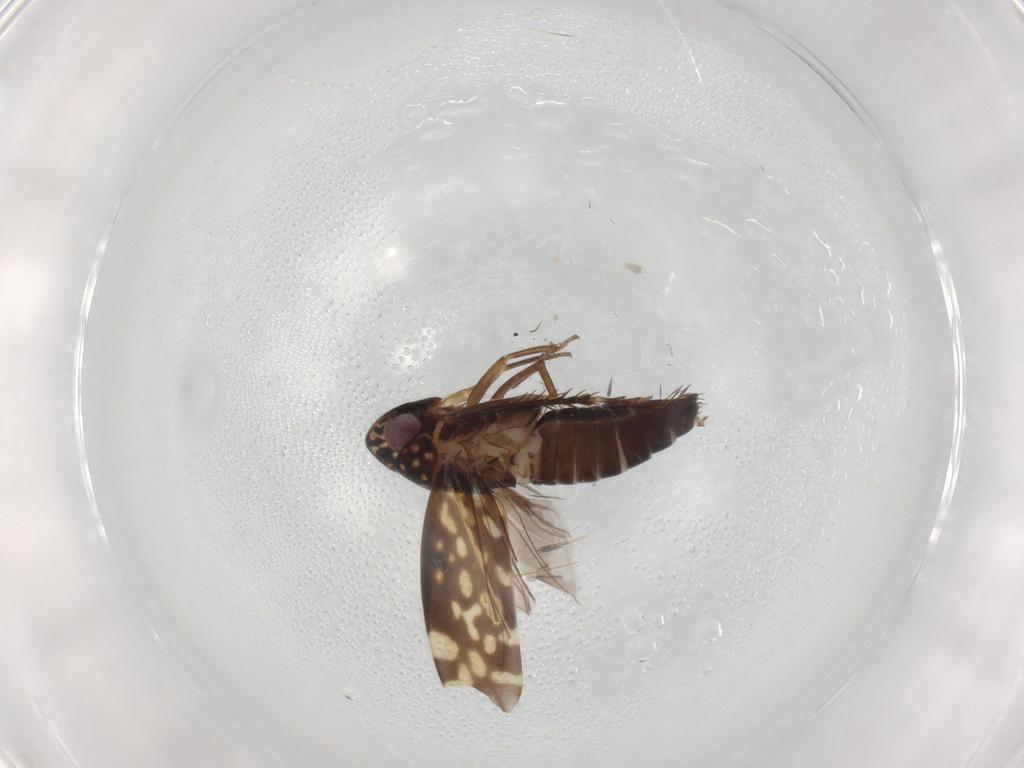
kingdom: Animalia
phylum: Arthropoda
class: Insecta
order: Hemiptera
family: Cicadellidae
